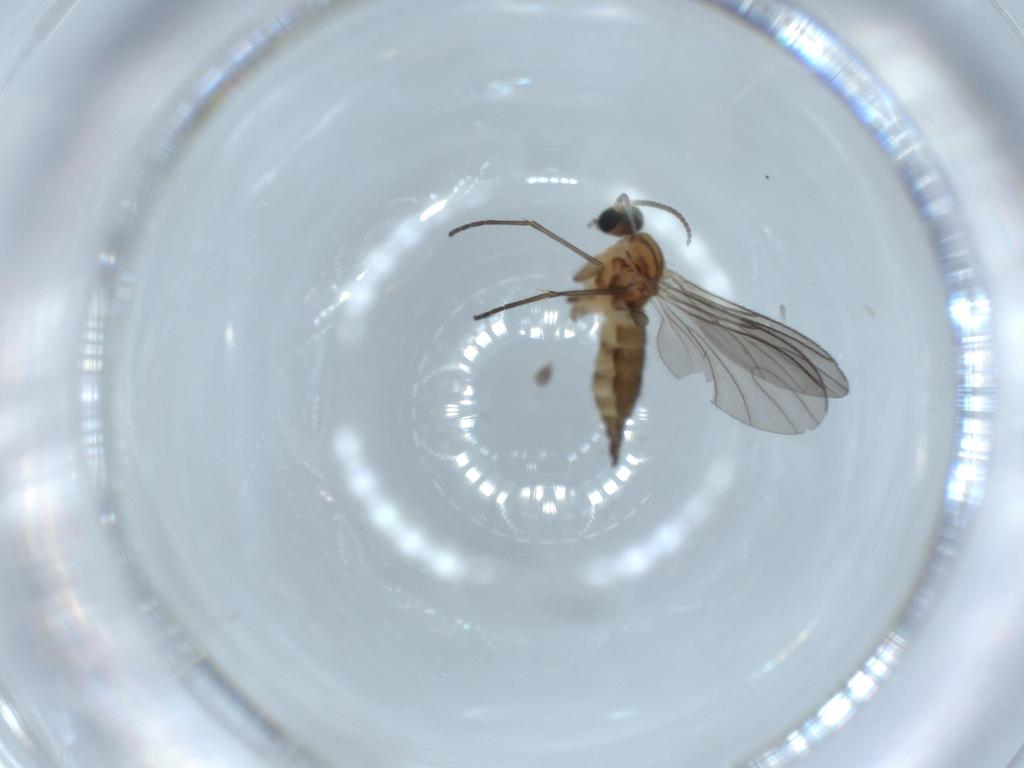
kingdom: Animalia
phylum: Arthropoda
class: Insecta
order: Diptera
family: Sciaridae
